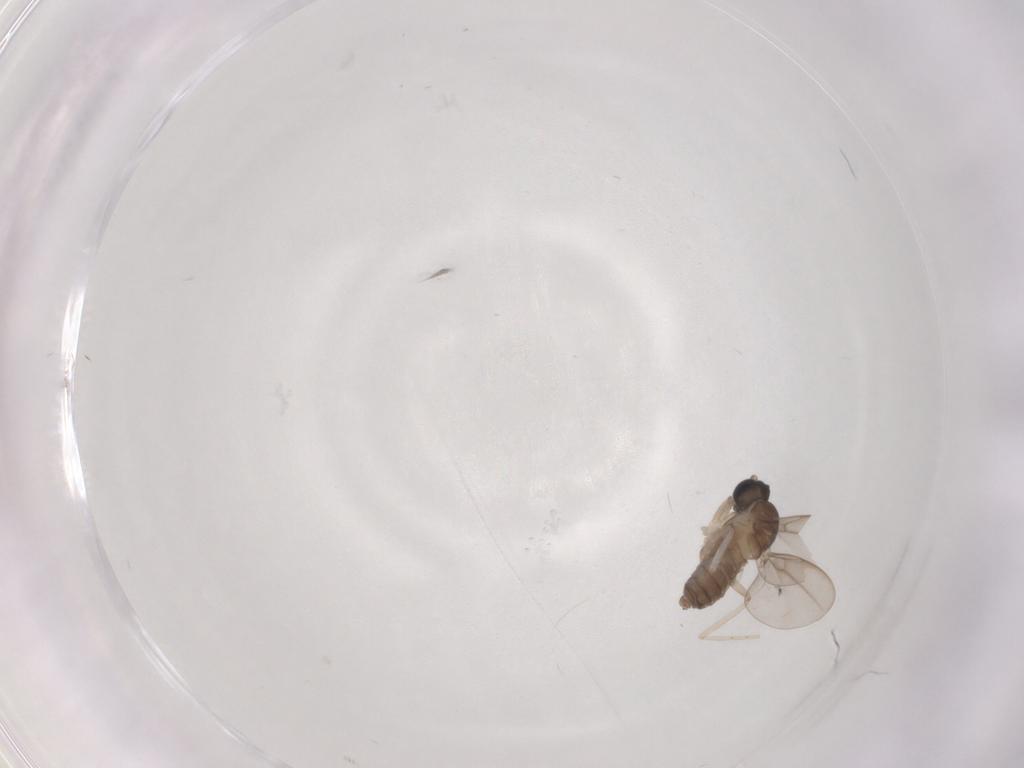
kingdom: Animalia
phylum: Arthropoda
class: Insecta
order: Diptera
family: Cecidomyiidae
